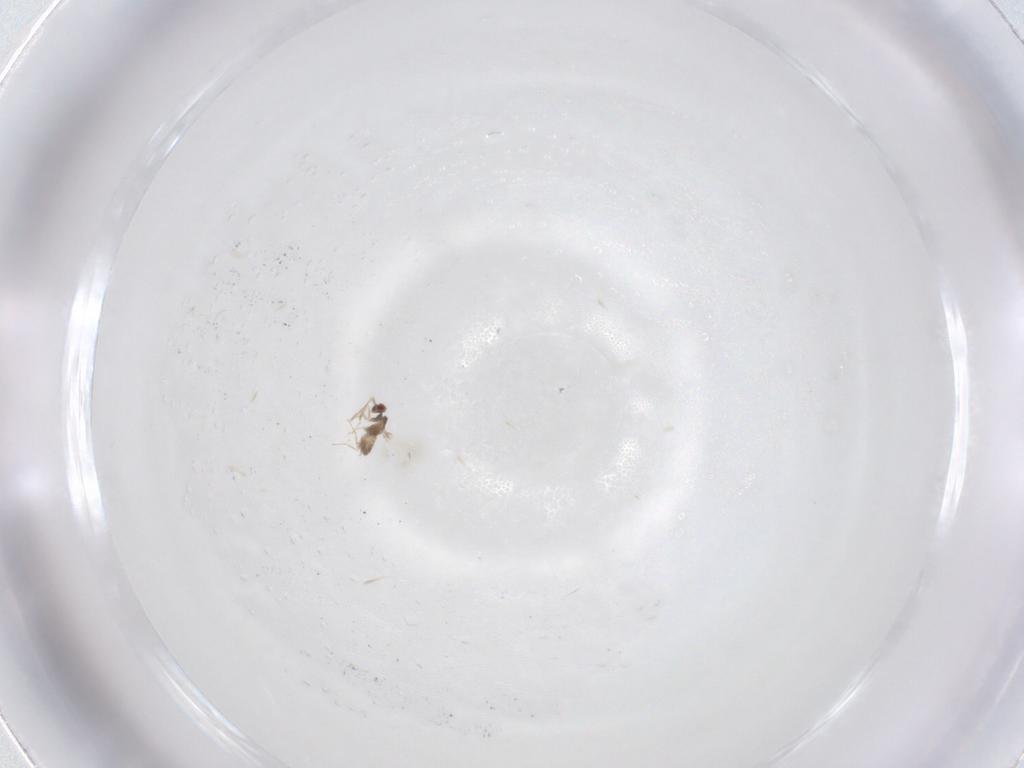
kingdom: Animalia
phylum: Arthropoda
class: Insecta
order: Hymenoptera
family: Mymaridae
